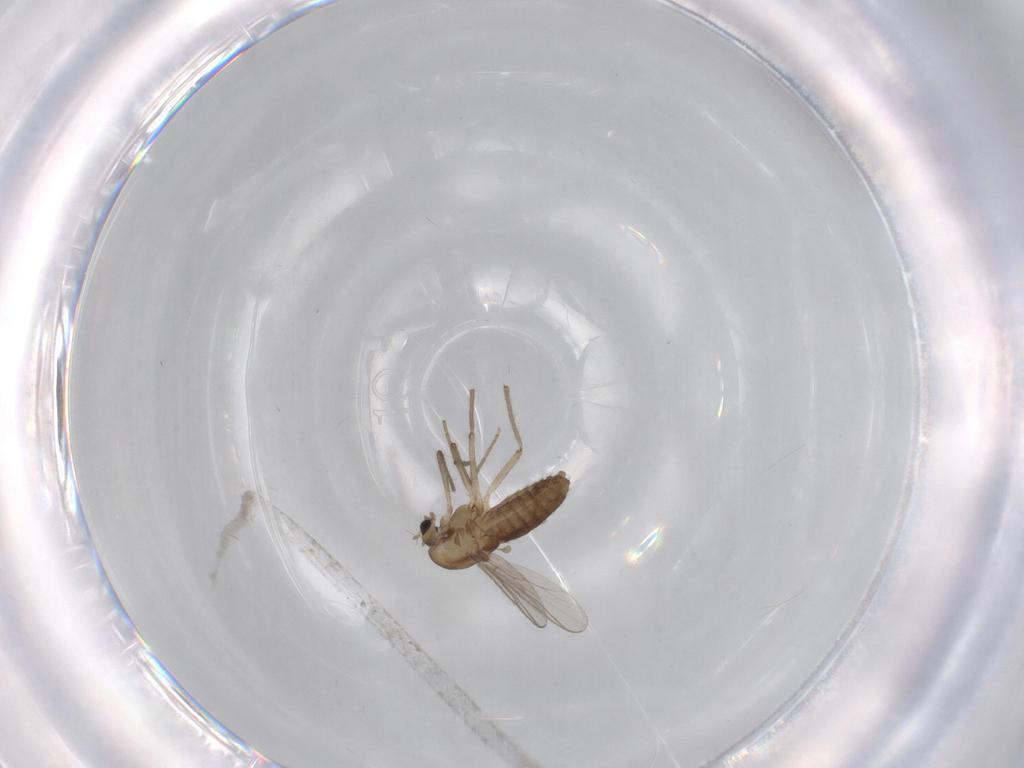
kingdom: Animalia
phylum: Arthropoda
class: Insecta
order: Diptera
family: Chironomidae
